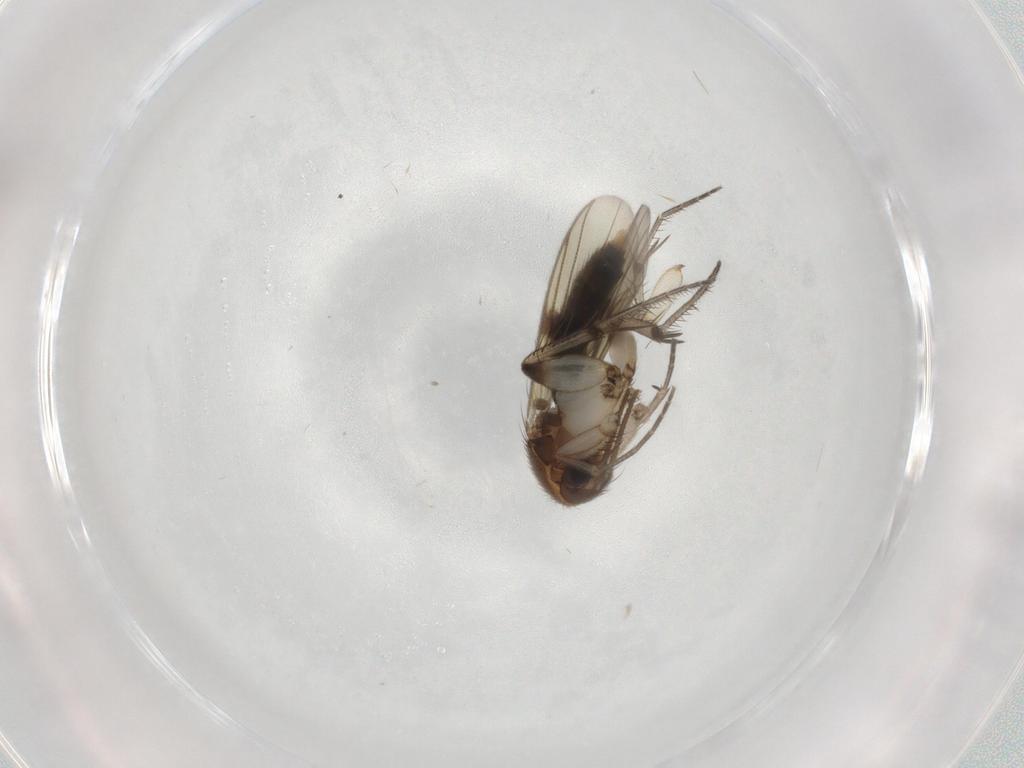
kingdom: Animalia
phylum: Arthropoda
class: Insecta
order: Diptera
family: Mycetophilidae
